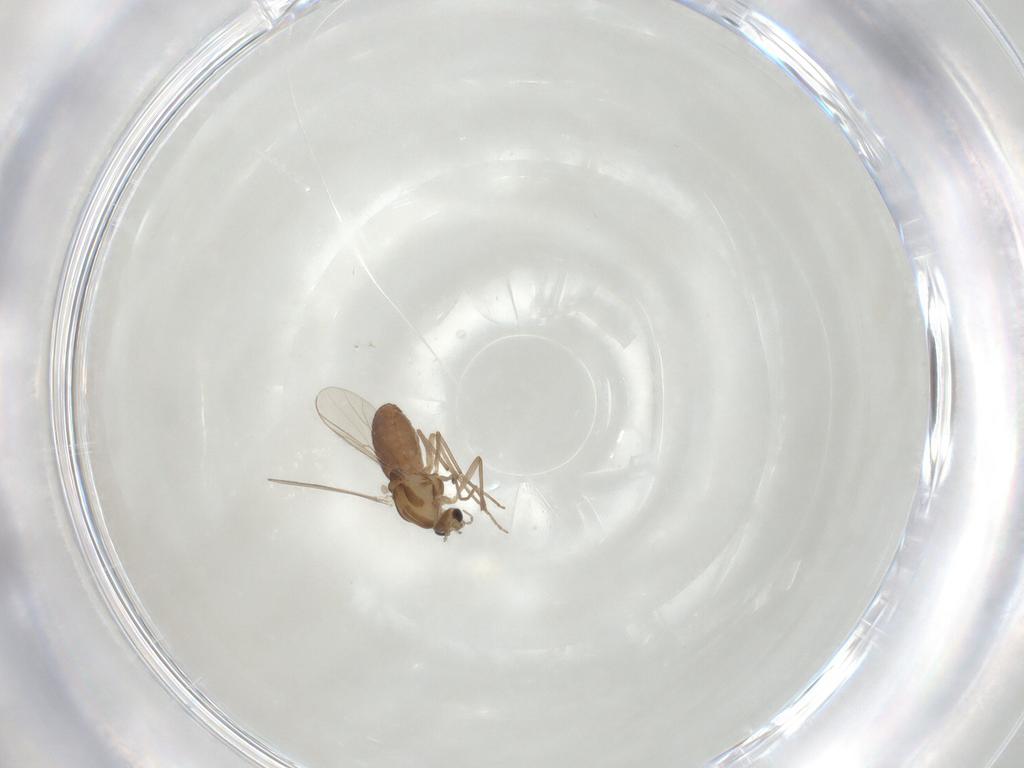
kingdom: Animalia
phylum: Arthropoda
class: Insecta
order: Diptera
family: Chironomidae
